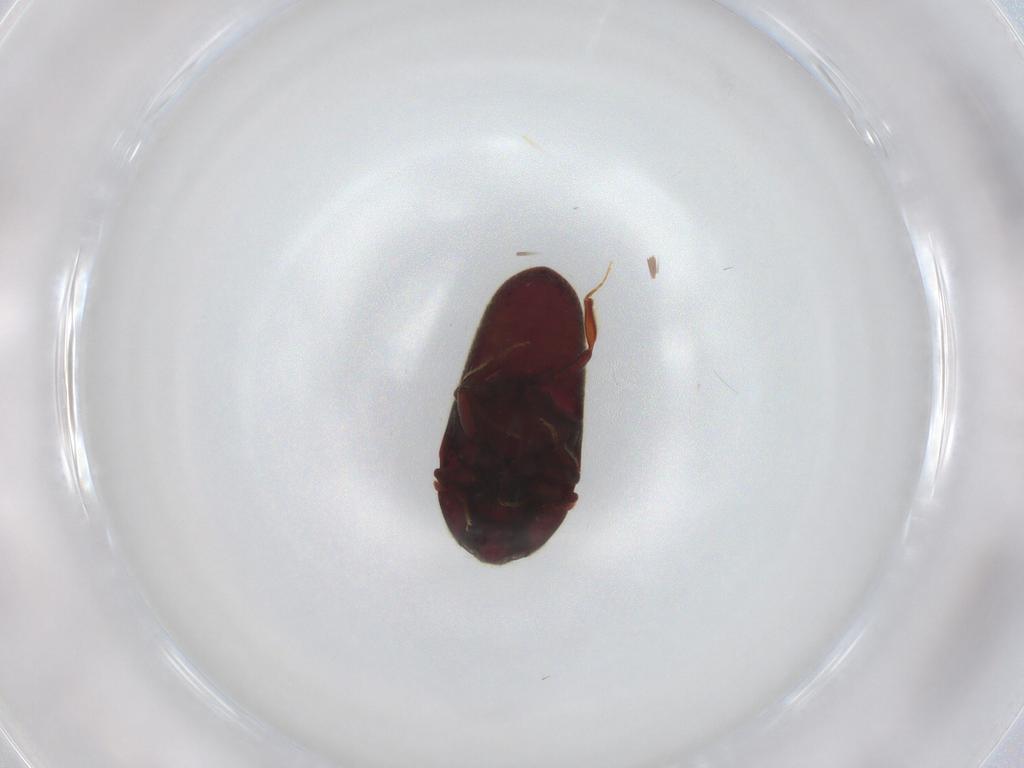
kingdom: Animalia
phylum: Arthropoda
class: Insecta
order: Coleoptera
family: Throscidae
